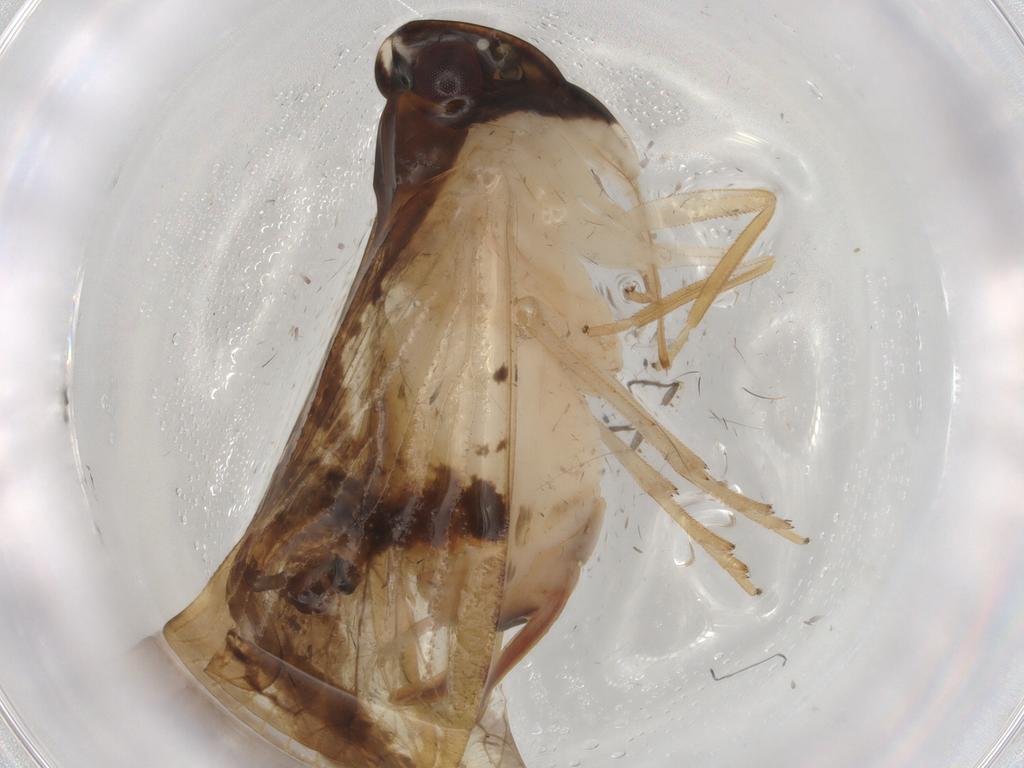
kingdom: Animalia
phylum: Arthropoda
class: Insecta
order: Hemiptera
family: Cixiidae
